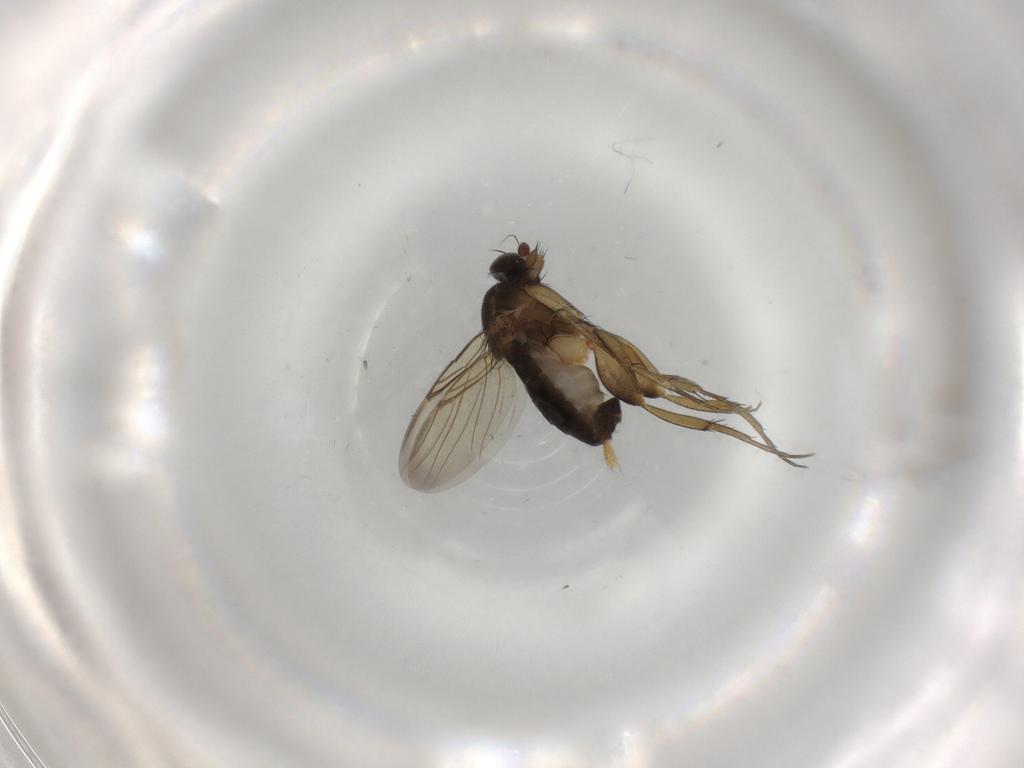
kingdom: Animalia
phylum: Arthropoda
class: Insecta
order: Diptera
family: Phoridae
